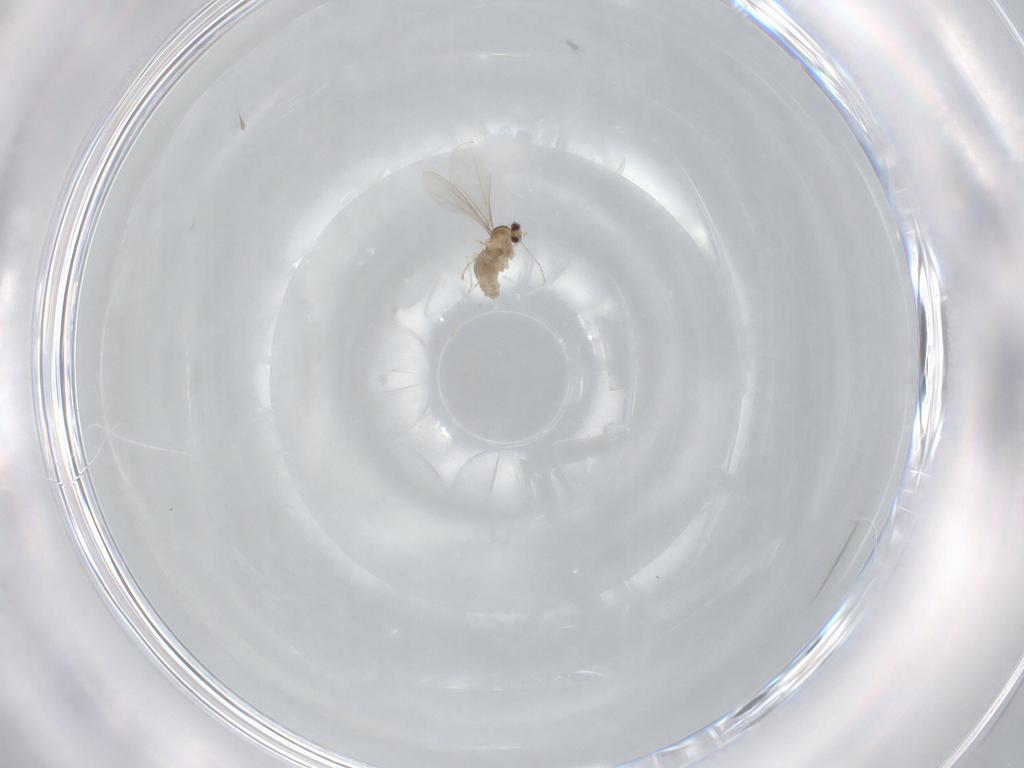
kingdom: Animalia
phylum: Arthropoda
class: Insecta
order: Diptera
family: Cecidomyiidae
